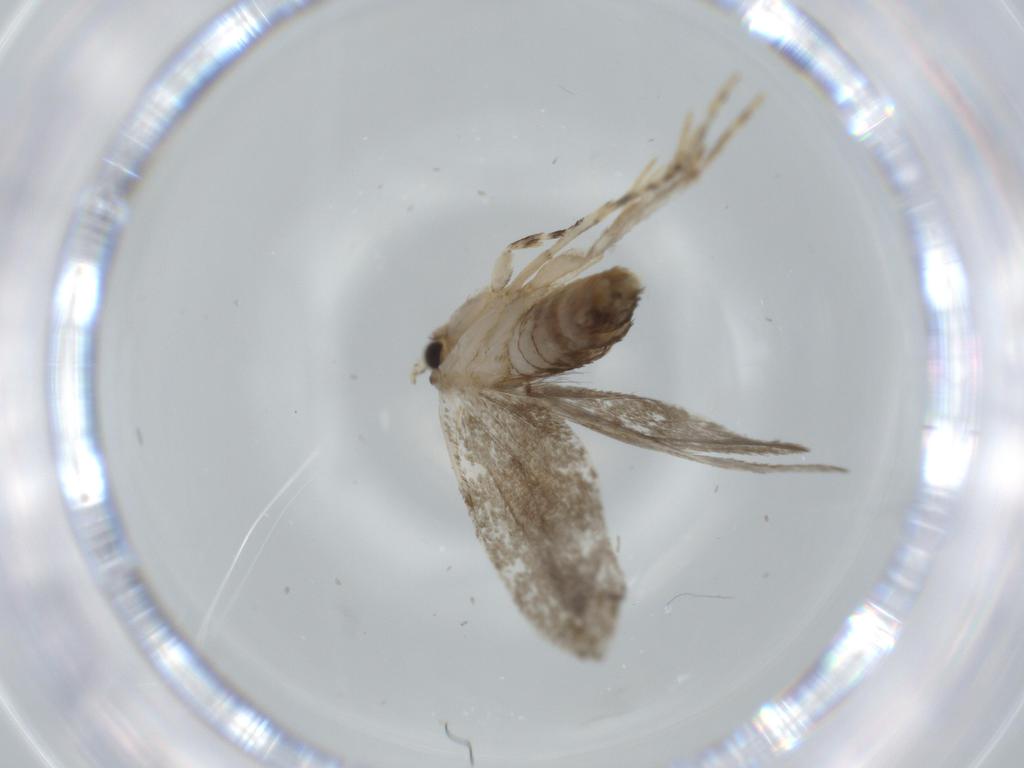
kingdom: Animalia
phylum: Arthropoda
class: Insecta
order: Lepidoptera
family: Tineidae
